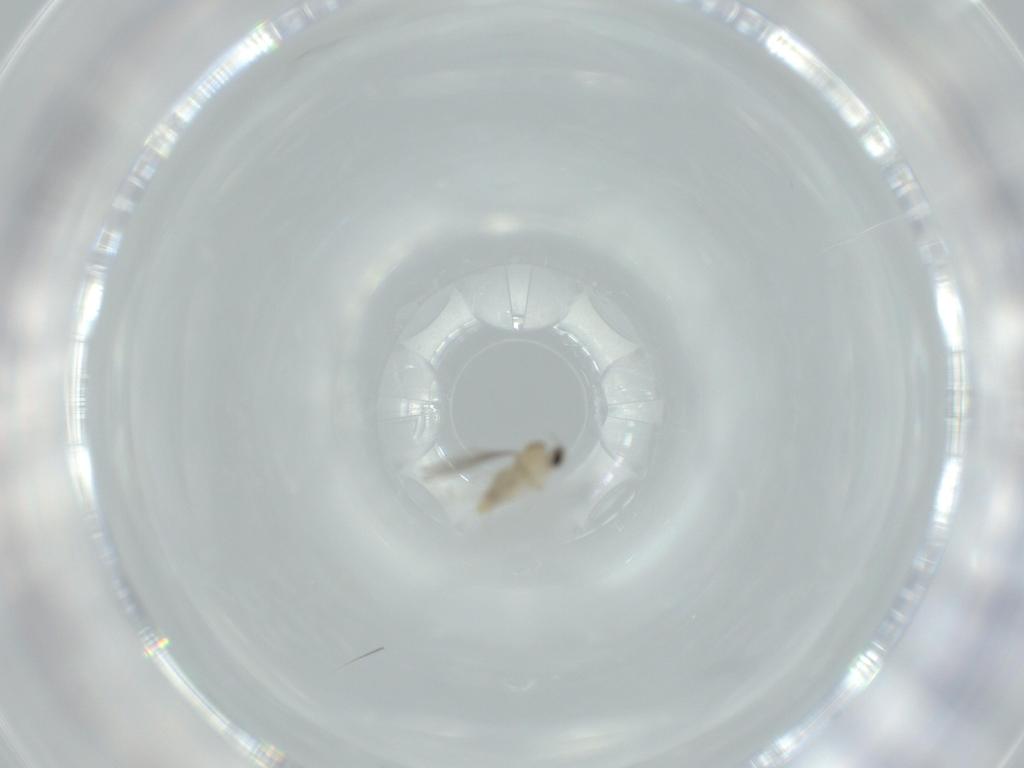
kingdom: Animalia
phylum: Arthropoda
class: Insecta
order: Diptera
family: Cecidomyiidae
